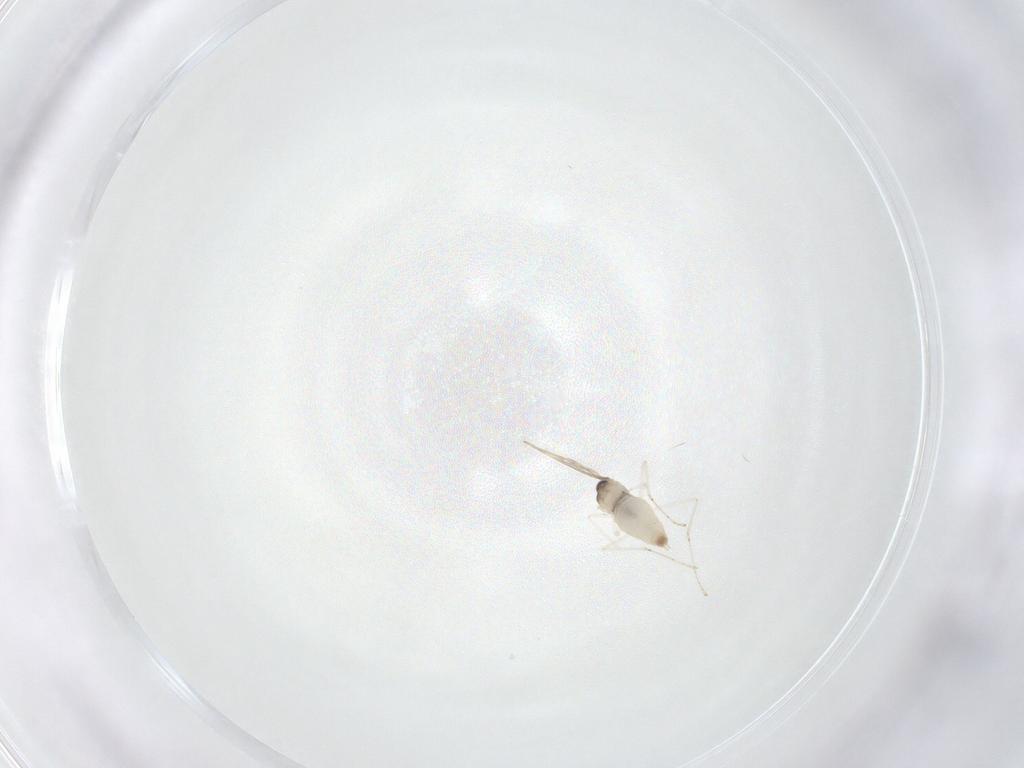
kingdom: Animalia
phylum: Arthropoda
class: Insecta
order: Diptera
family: Cecidomyiidae
